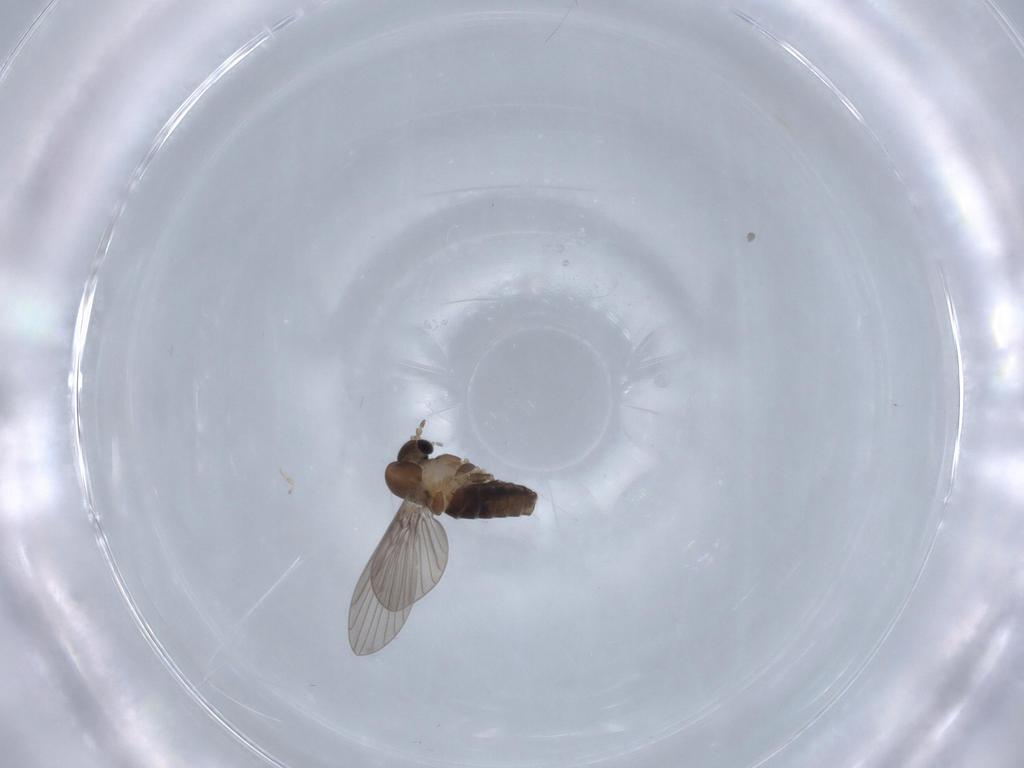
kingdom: Animalia
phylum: Arthropoda
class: Insecta
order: Diptera
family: Psychodidae
